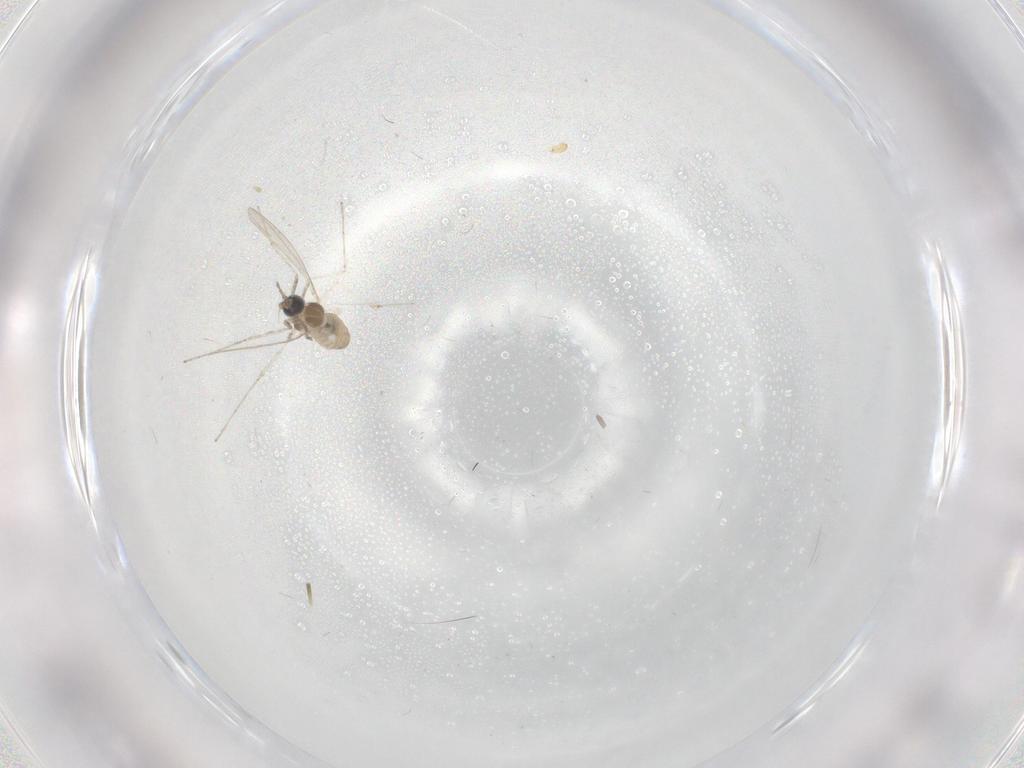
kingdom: Animalia
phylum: Arthropoda
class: Insecta
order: Diptera
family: Cecidomyiidae
